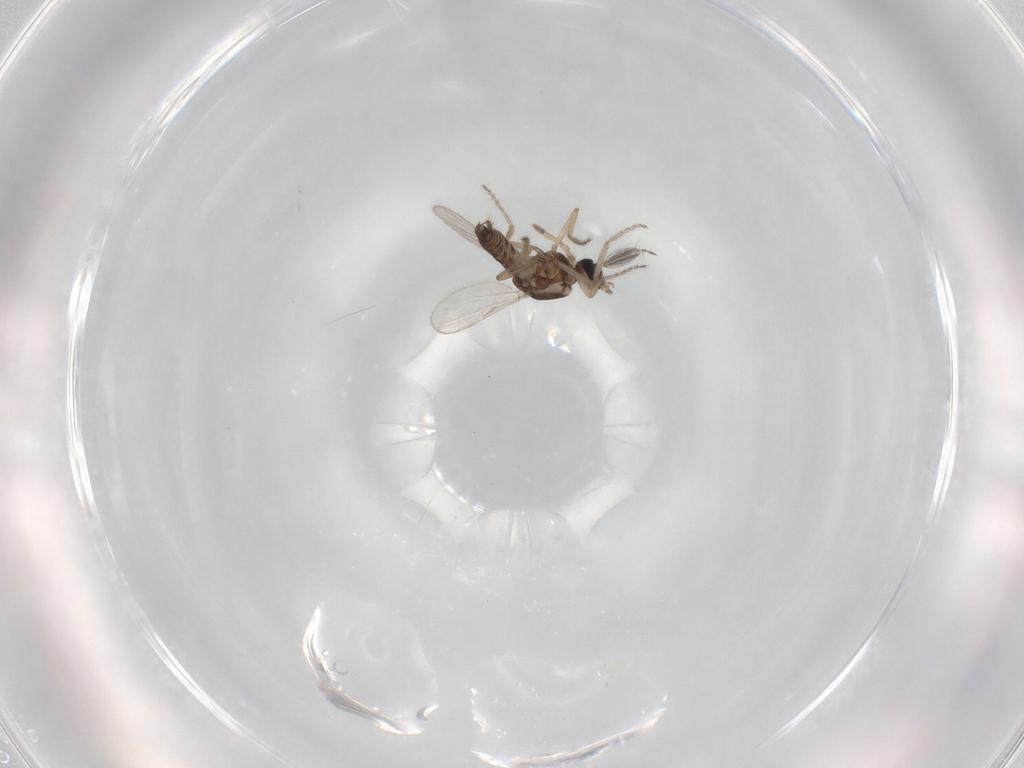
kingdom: Animalia
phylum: Arthropoda
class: Insecta
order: Diptera
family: Ceratopogonidae
